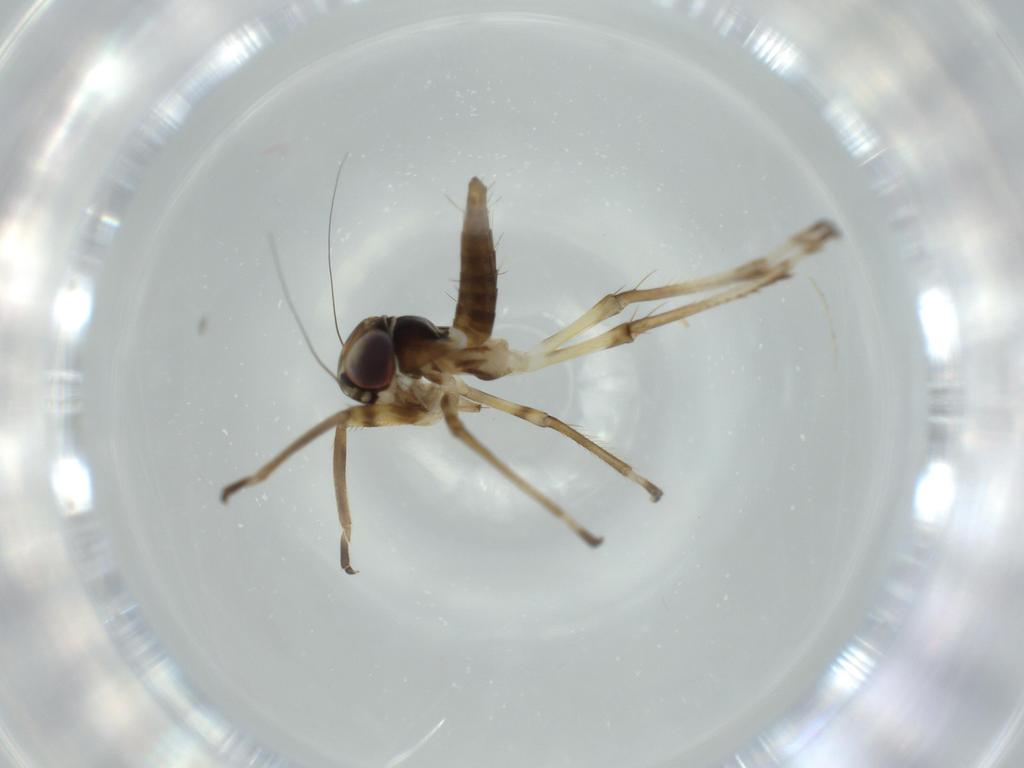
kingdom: Animalia
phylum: Arthropoda
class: Insecta
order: Hemiptera
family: Cicadellidae
